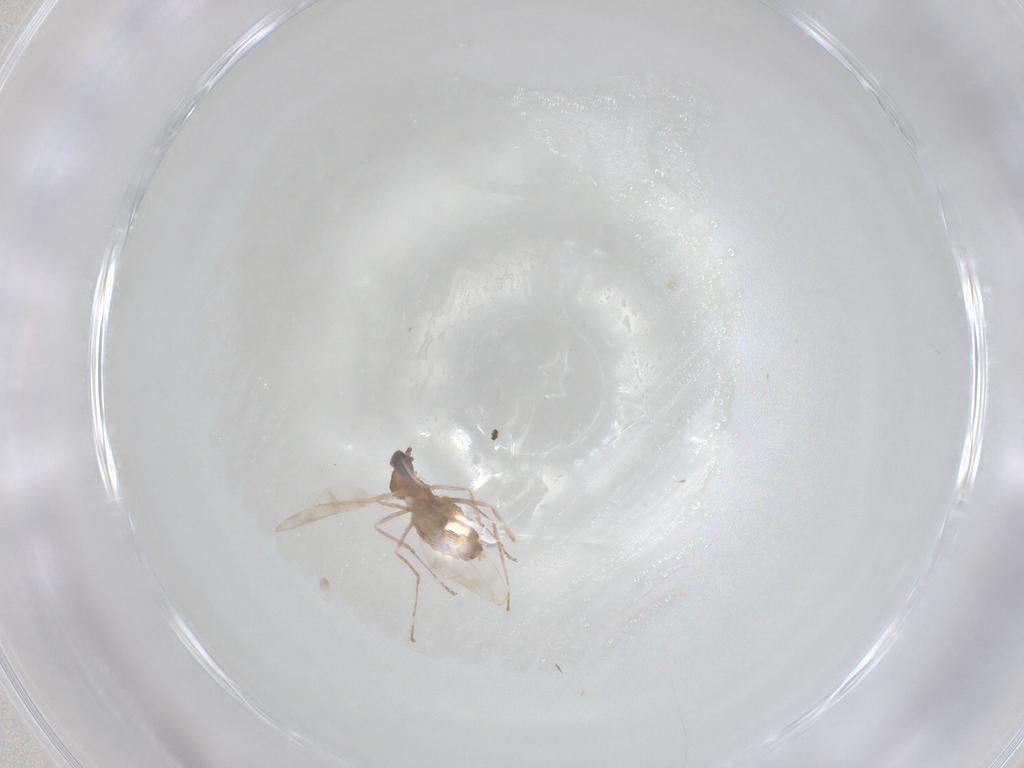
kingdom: Animalia
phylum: Arthropoda
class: Insecta
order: Diptera
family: Cecidomyiidae
